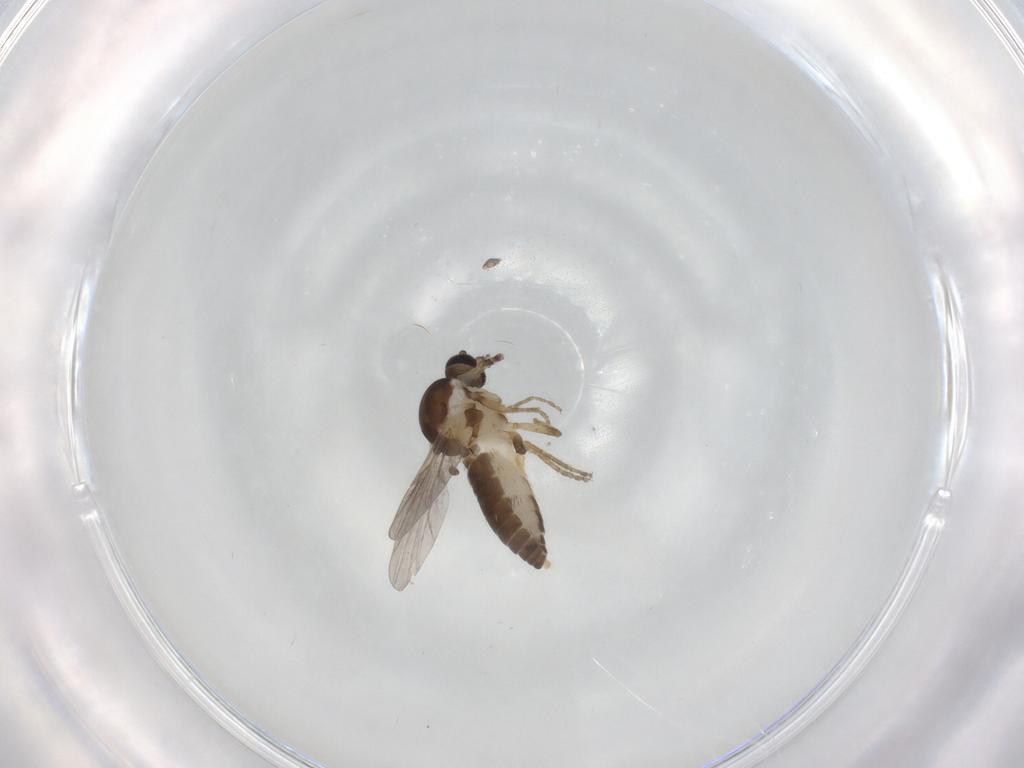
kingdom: Animalia
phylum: Arthropoda
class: Insecta
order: Diptera
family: Ceratopogonidae
